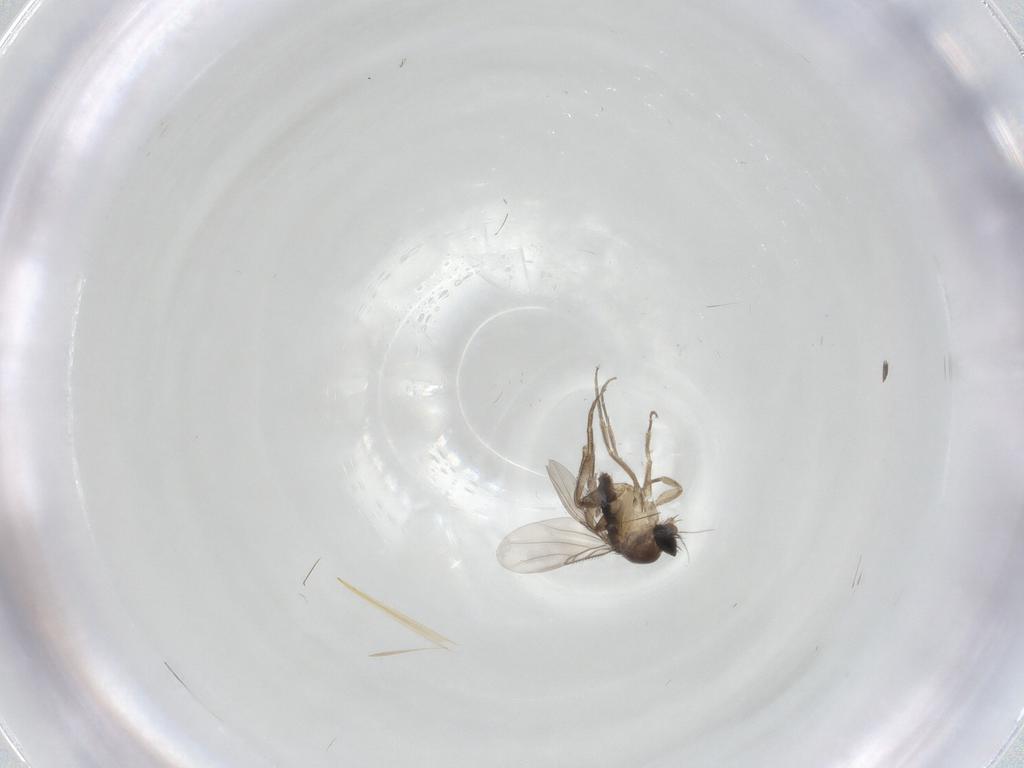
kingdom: Animalia
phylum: Arthropoda
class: Insecta
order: Diptera
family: Phoridae
